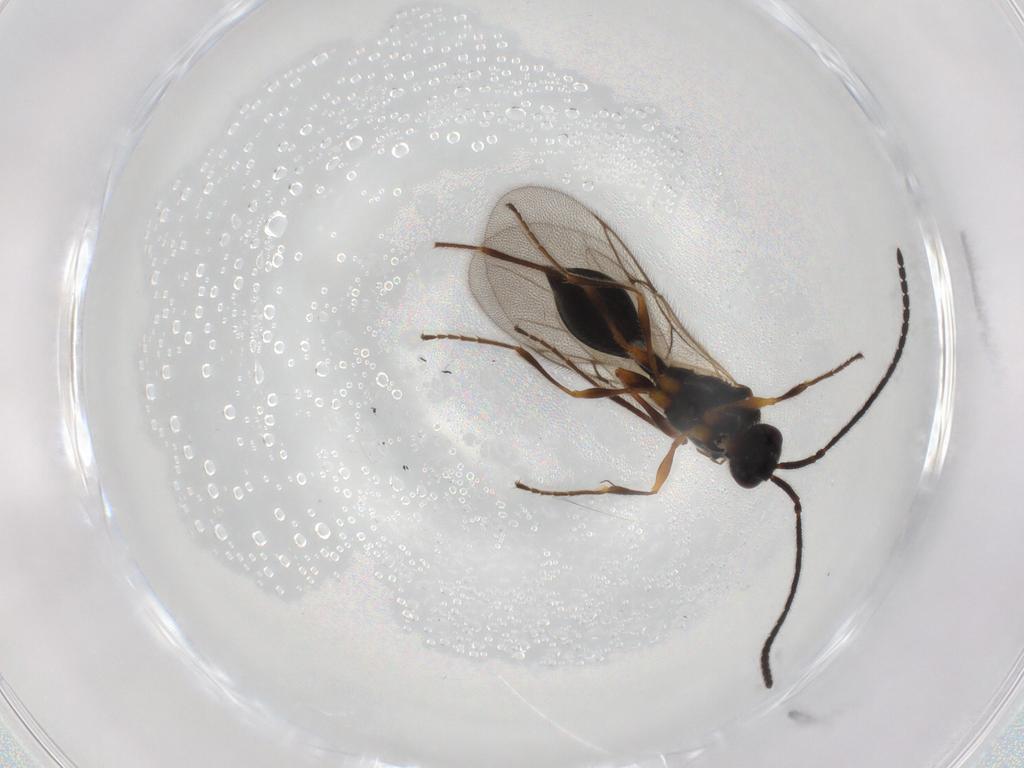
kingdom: Animalia
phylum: Arthropoda
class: Insecta
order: Hymenoptera
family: Diapriidae
